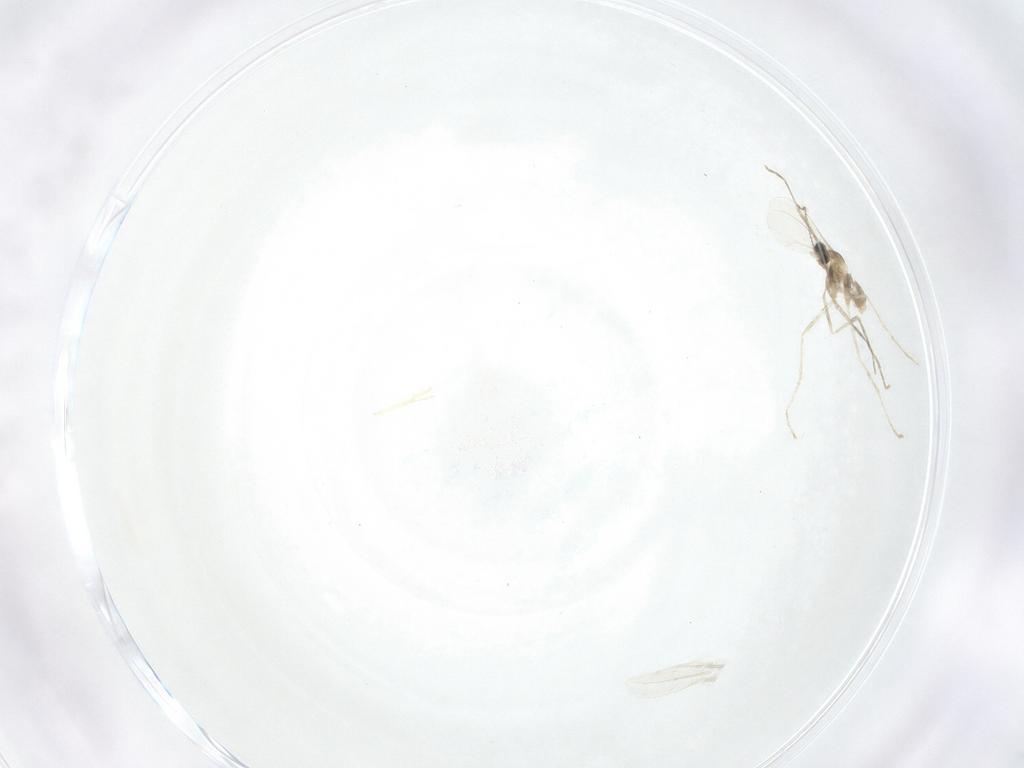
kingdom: Animalia
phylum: Arthropoda
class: Insecta
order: Diptera
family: Cecidomyiidae
